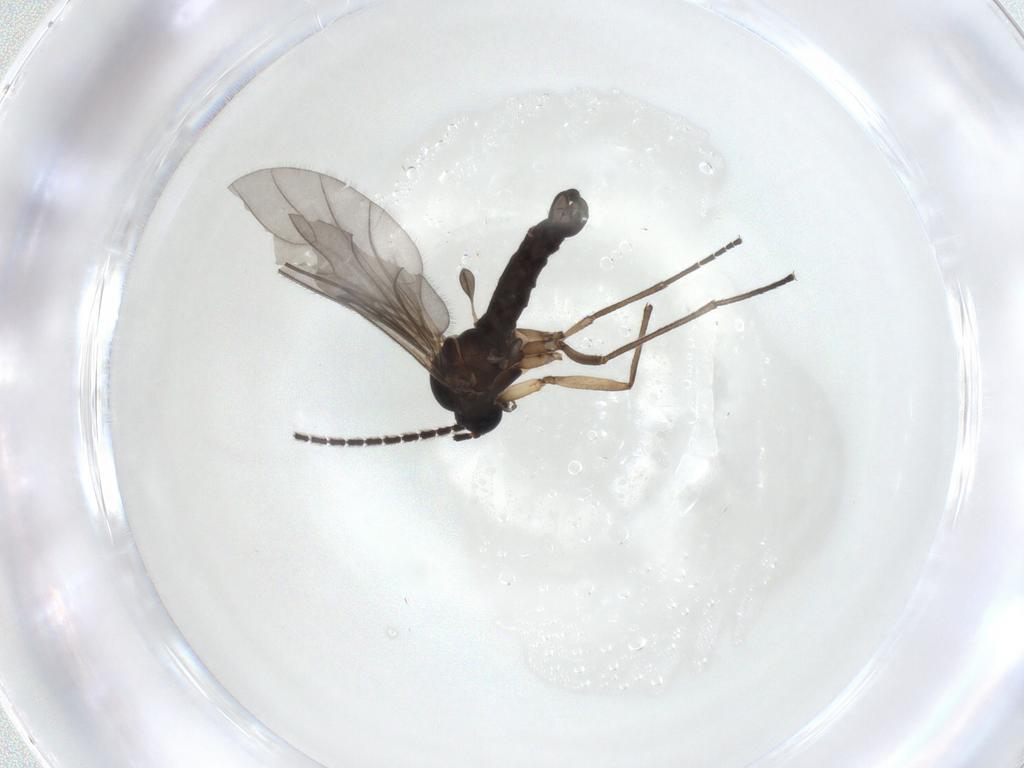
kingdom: Animalia
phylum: Arthropoda
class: Insecta
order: Diptera
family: Sciaridae
